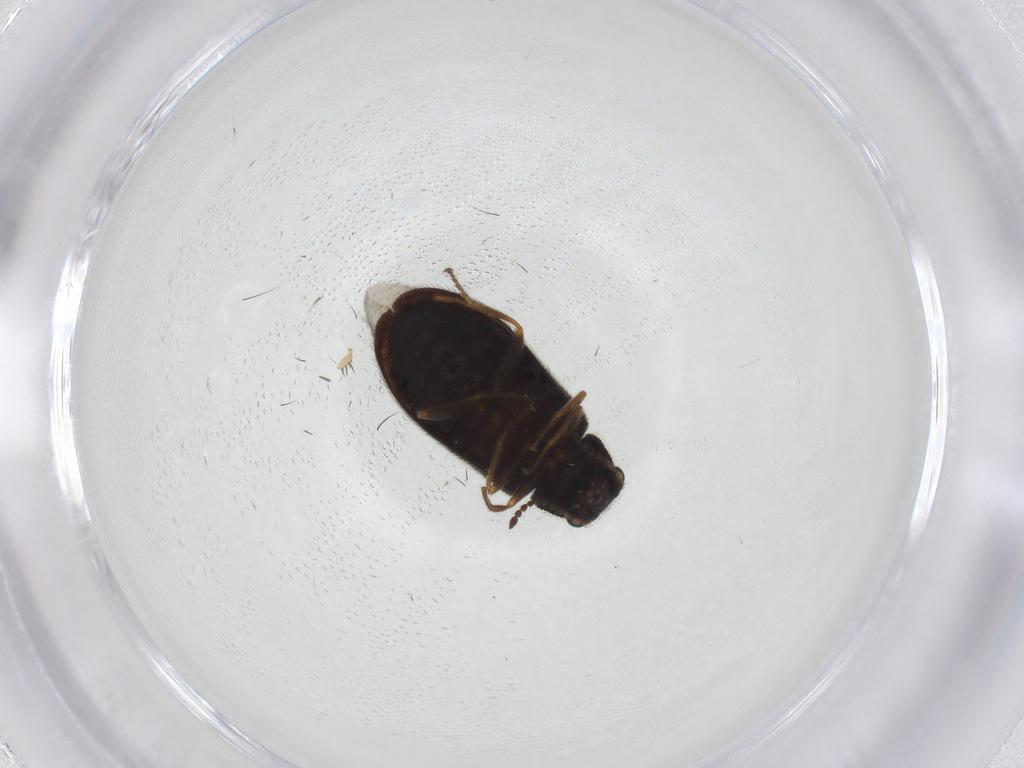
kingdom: Animalia
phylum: Arthropoda
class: Insecta
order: Coleoptera
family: Melyridae
